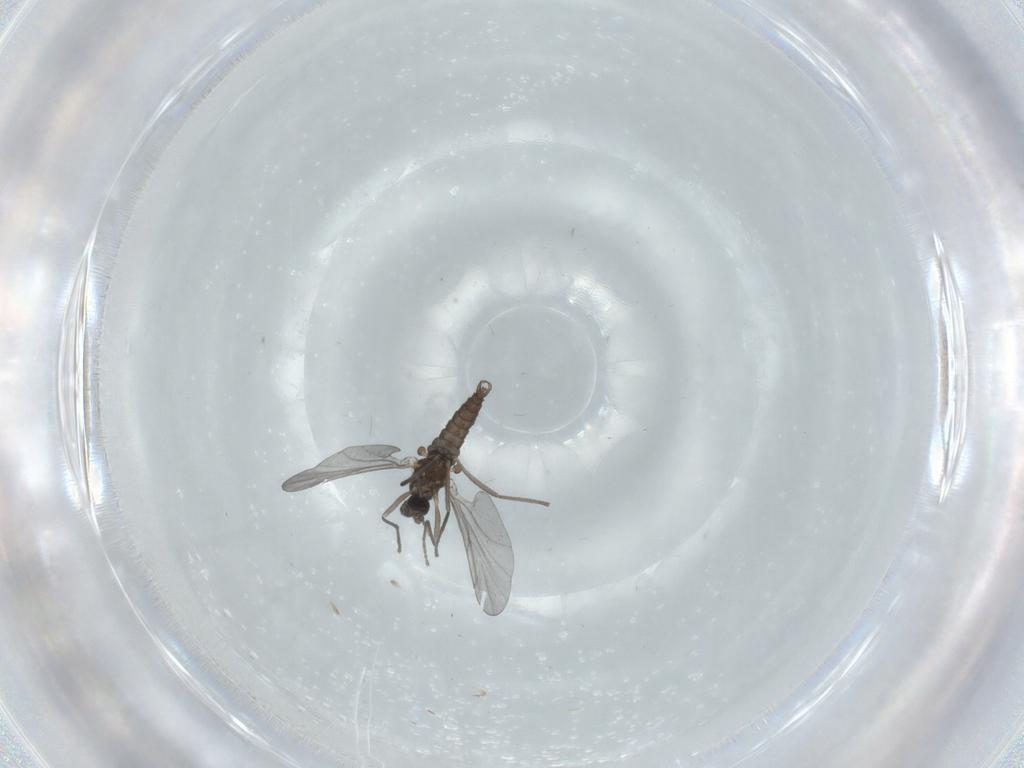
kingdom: Animalia
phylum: Arthropoda
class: Insecta
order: Diptera
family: Cecidomyiidae
